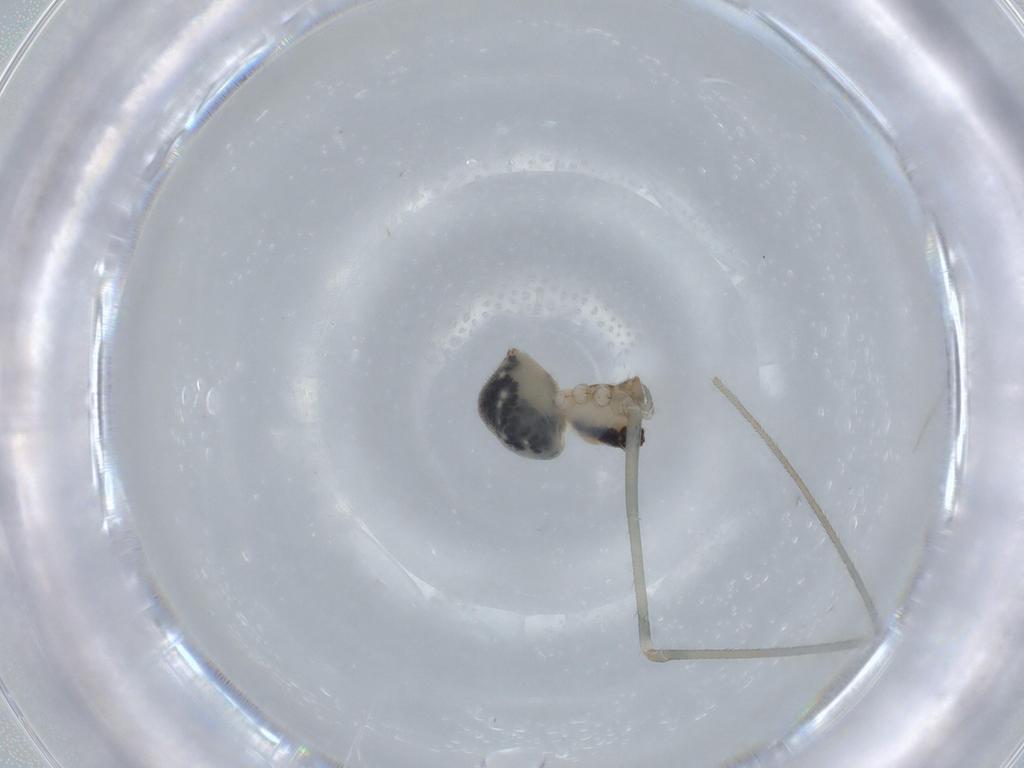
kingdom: Animalia
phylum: Arthropoda
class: Arachnida
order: Araneae
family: Pholcidae
